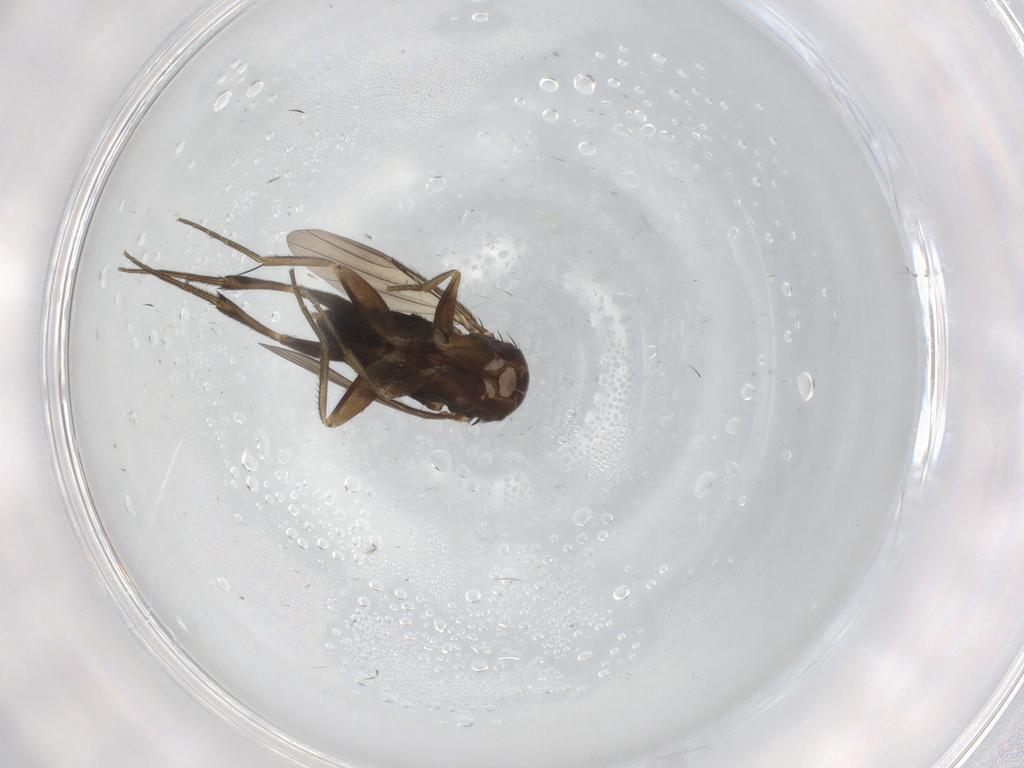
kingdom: Animalia
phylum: Arthropoda
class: Insecta
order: Diptera
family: Phoridae
